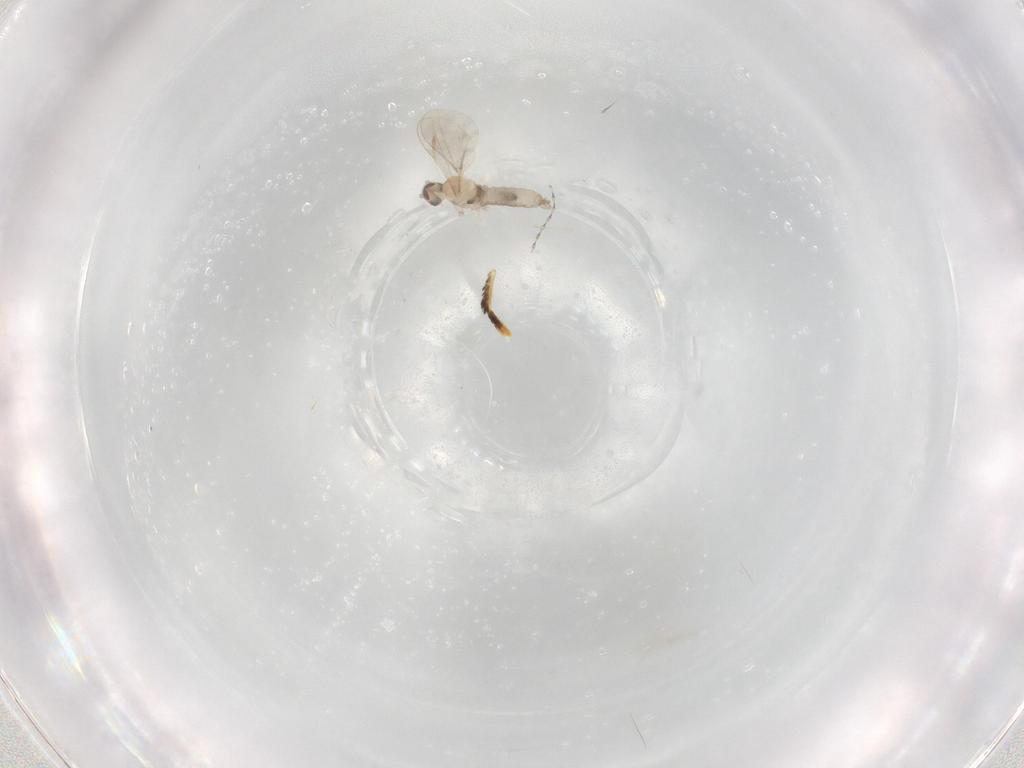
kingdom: Animalia
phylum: Arthropoda
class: Insecta
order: Diptera
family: Cecidomyiidae
